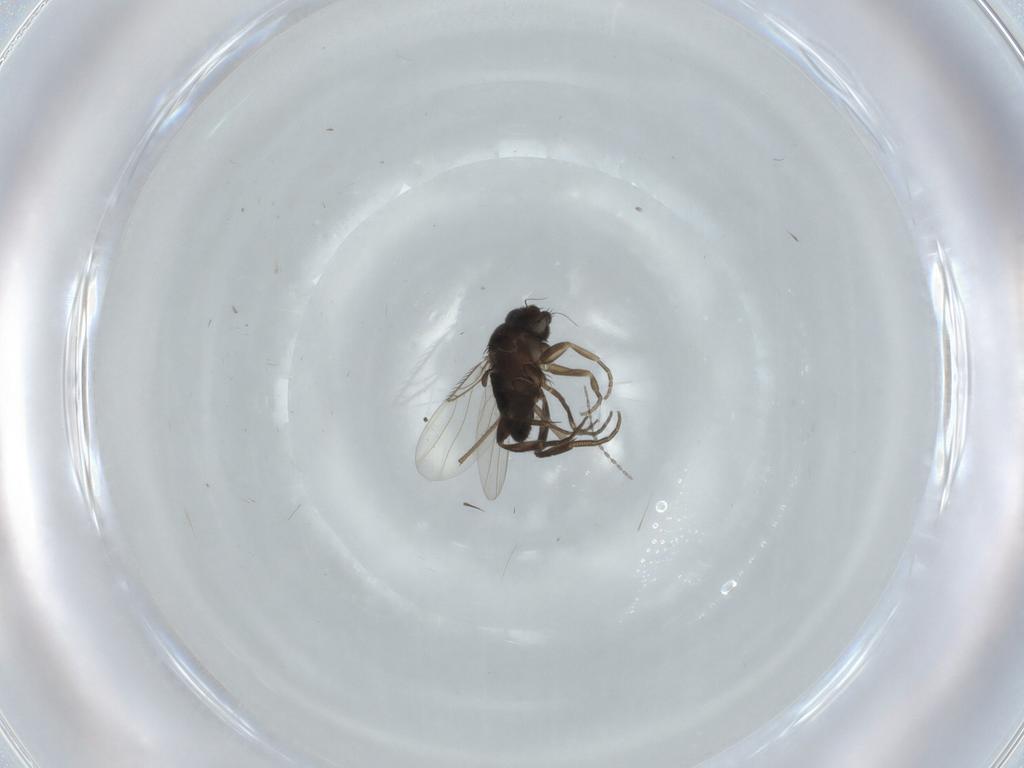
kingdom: Animalia
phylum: Arthropoda
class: Insecta
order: Diptera
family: Phoridae
